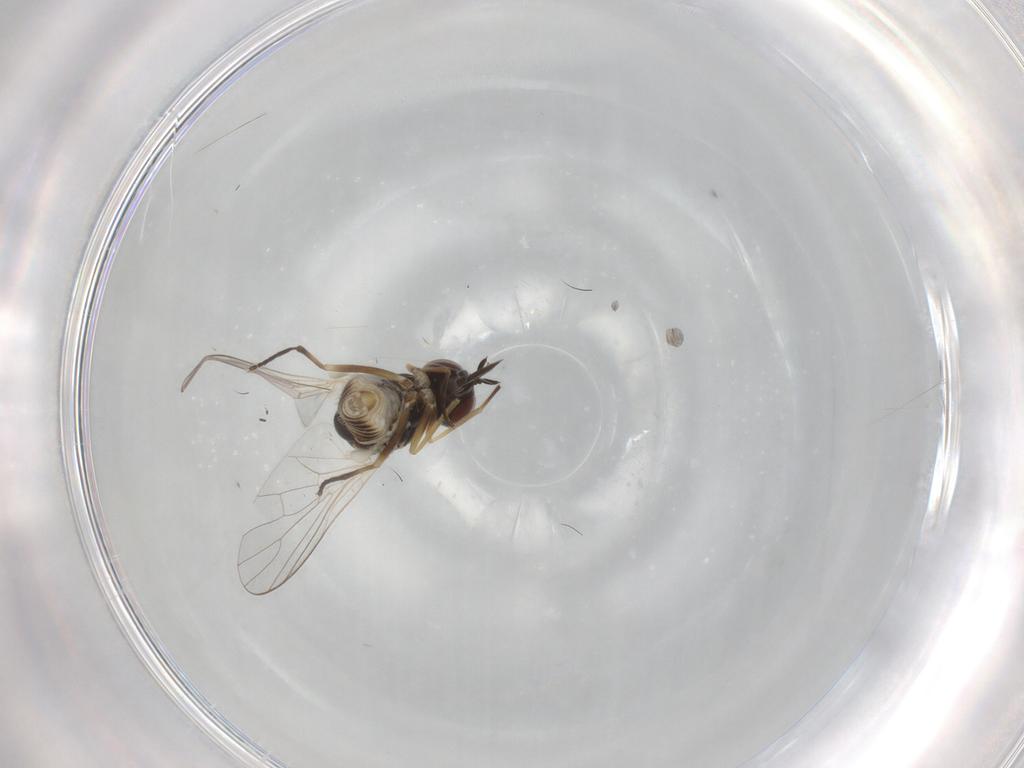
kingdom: Animalia
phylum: Arthropoda
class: Insecta
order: Diptera
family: Bombyliidae
